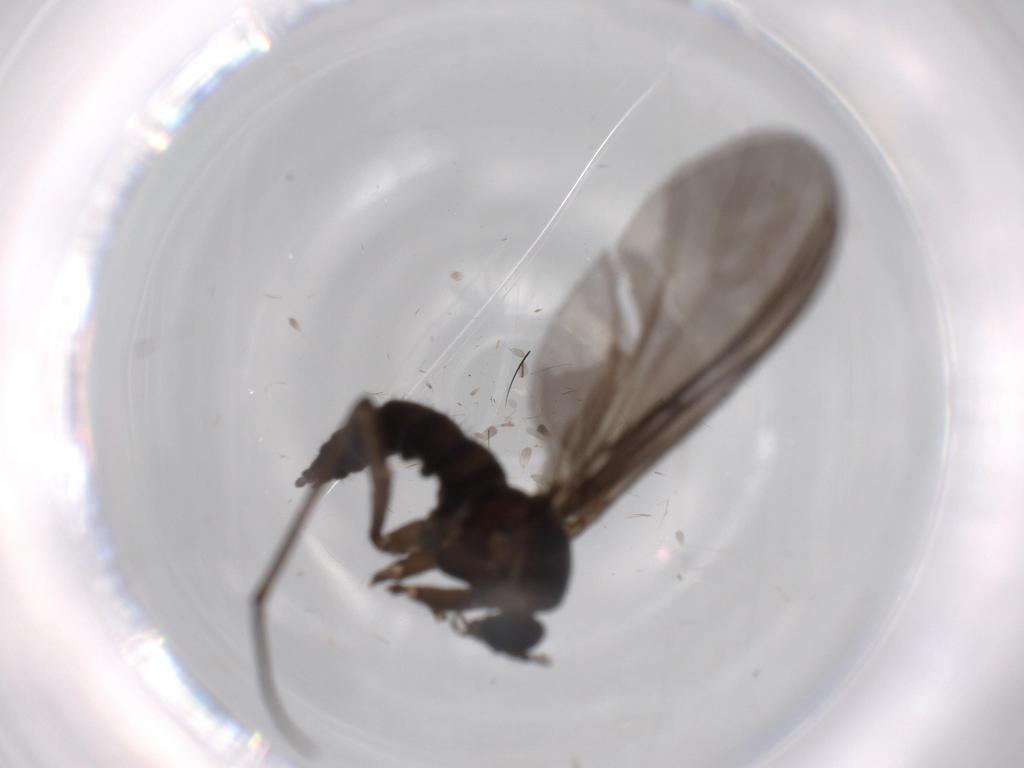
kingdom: Animalia
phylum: Arthropoda
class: Insecta
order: Diptera
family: Sciaridae
